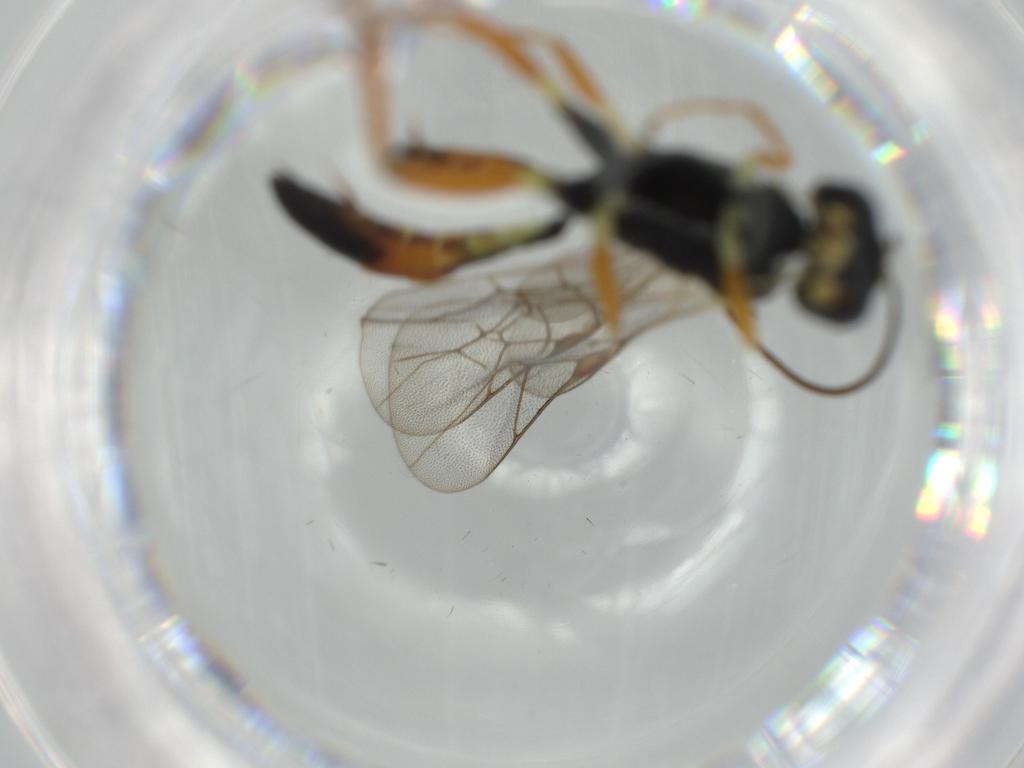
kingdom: Animalia
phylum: Arthropoda
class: Insecta
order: Hymenoptera
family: Ichneumonidae
